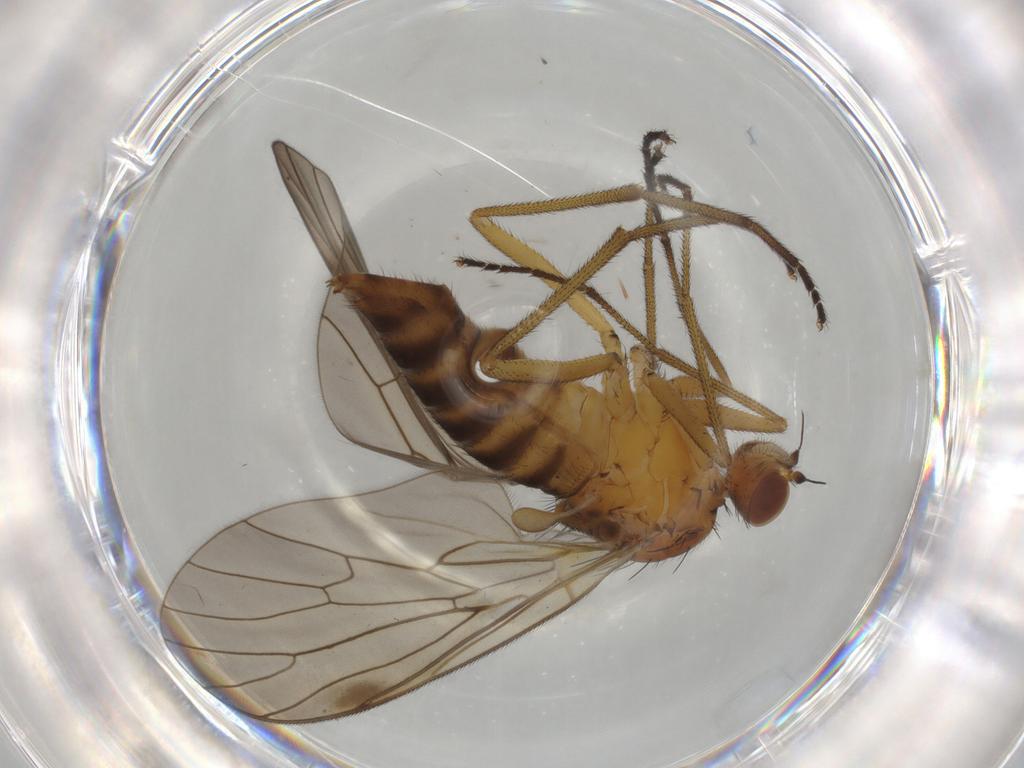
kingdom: Animalia
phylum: Arthropoda
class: Insecta
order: Diptera
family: Brachystomatidae
